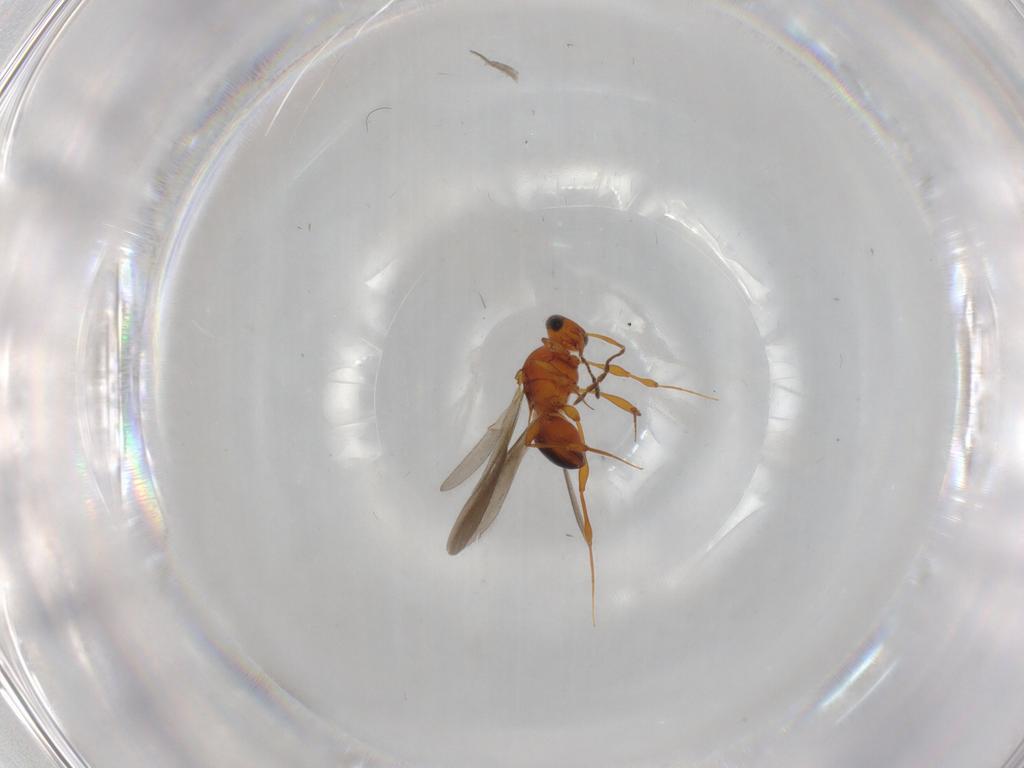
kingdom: Animalia
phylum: Arthropoda
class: Insecta
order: Hymenoptera
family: Platygastridae
